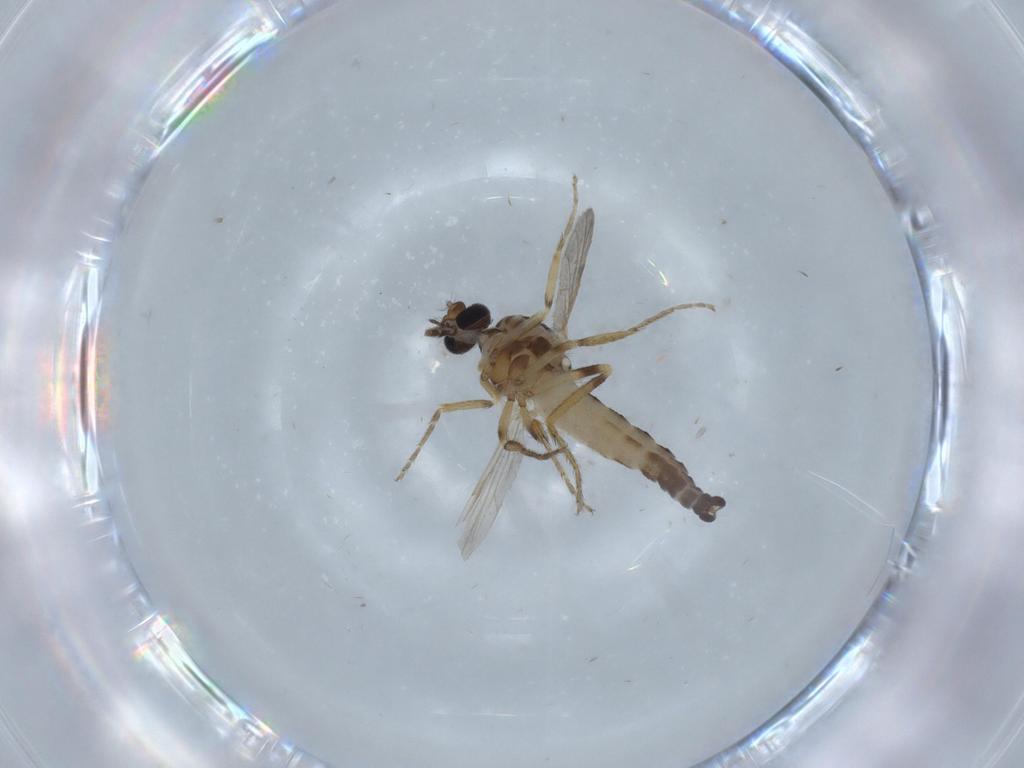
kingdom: Animalia
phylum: Arthropoda
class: Insecta
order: Diptera
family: Ceratopogonidae
